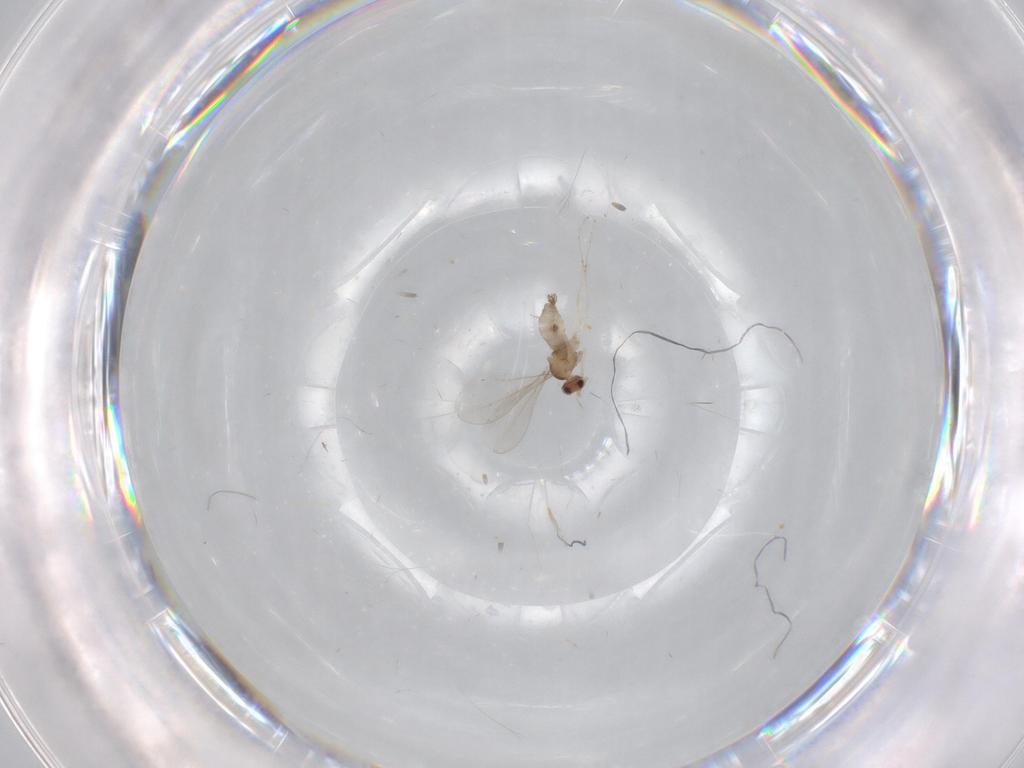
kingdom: Animalia
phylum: Arthropoda
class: Insecta
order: Diptera
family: Cecidomyiidae
